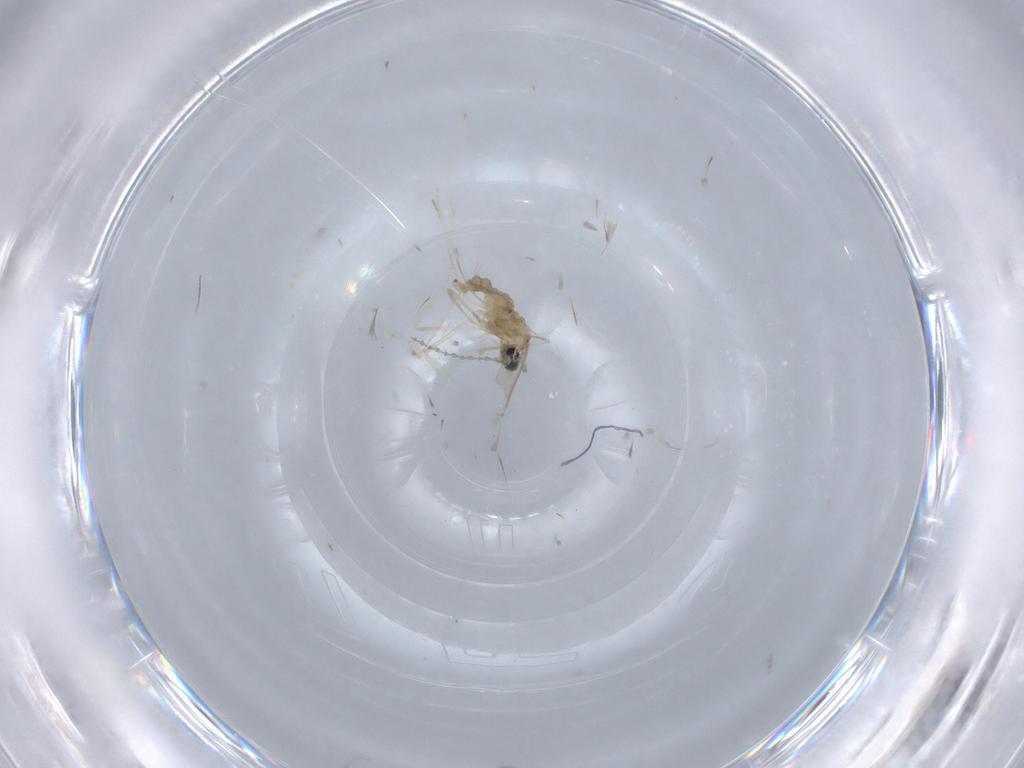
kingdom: Animalia
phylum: Arthropoda
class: Insecta
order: Diptera
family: Cecidomyiidae
